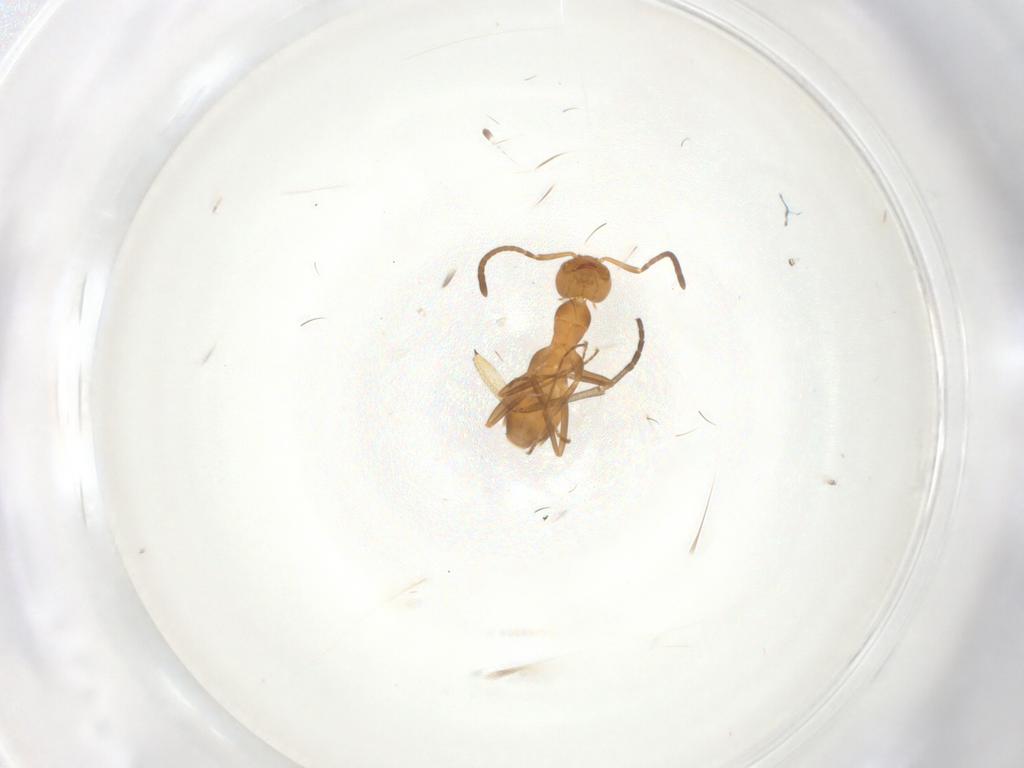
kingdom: Animalia
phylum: Arthropoda
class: Insecta
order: Hymenoptera
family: Formicidae
